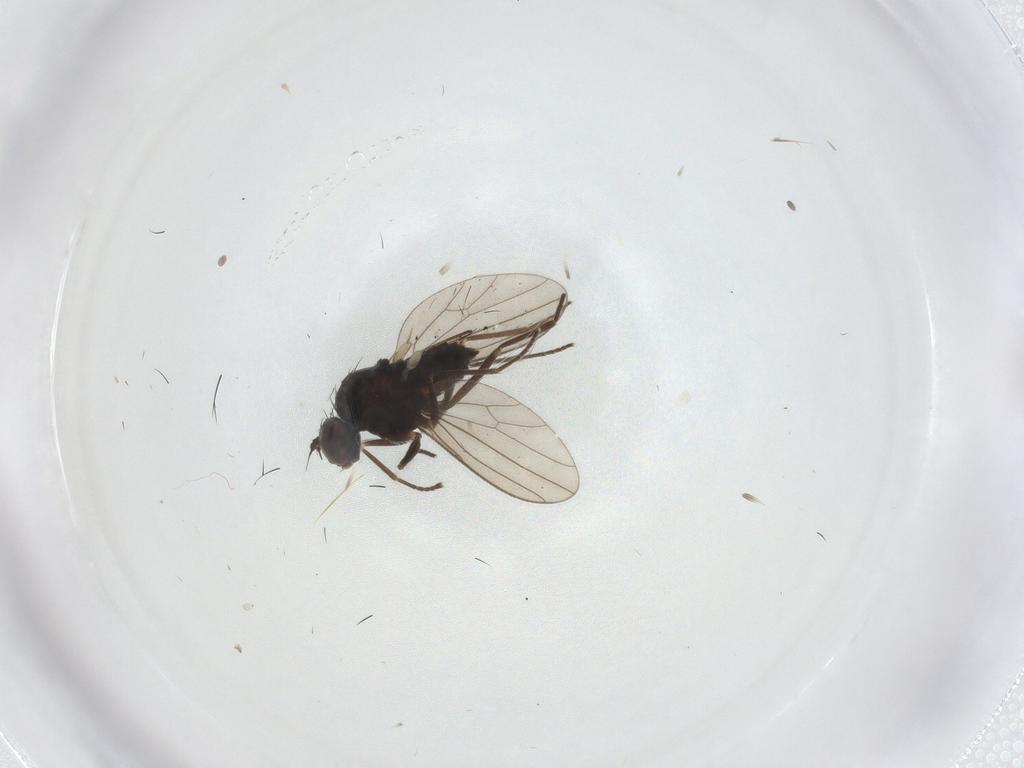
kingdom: Animalia
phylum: Arthropoda
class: Insecta
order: Diptera
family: Dolichopodidae
